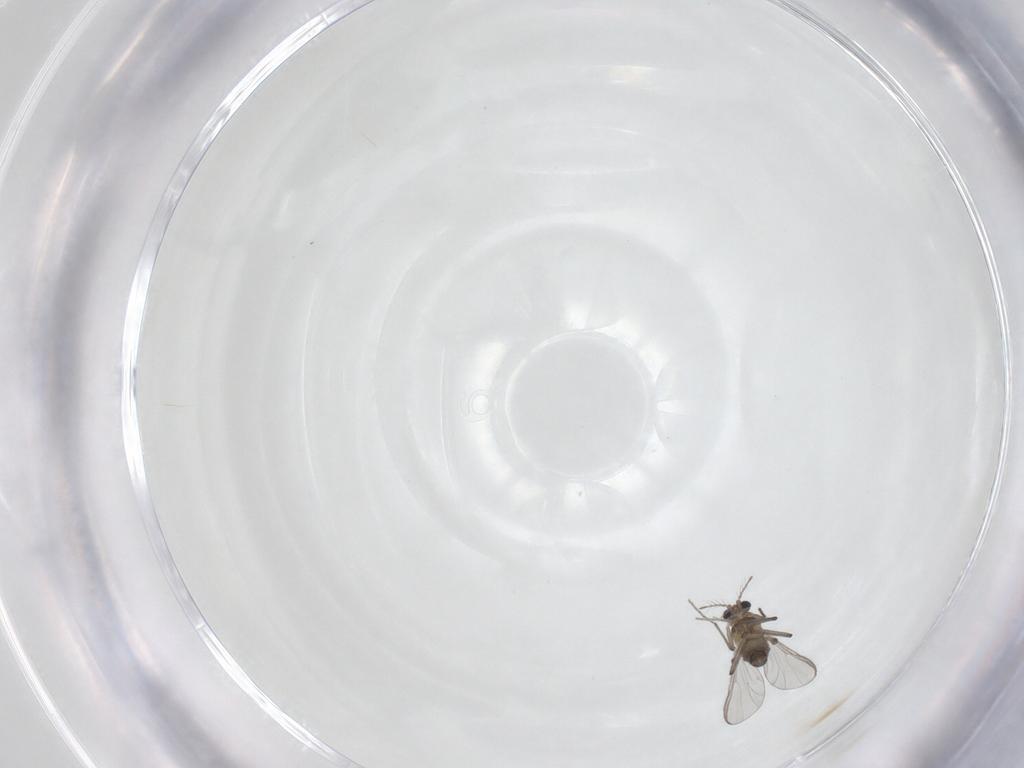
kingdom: Animalia
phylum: Arthropoda
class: Insecta
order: Diptera
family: Chironomidae
